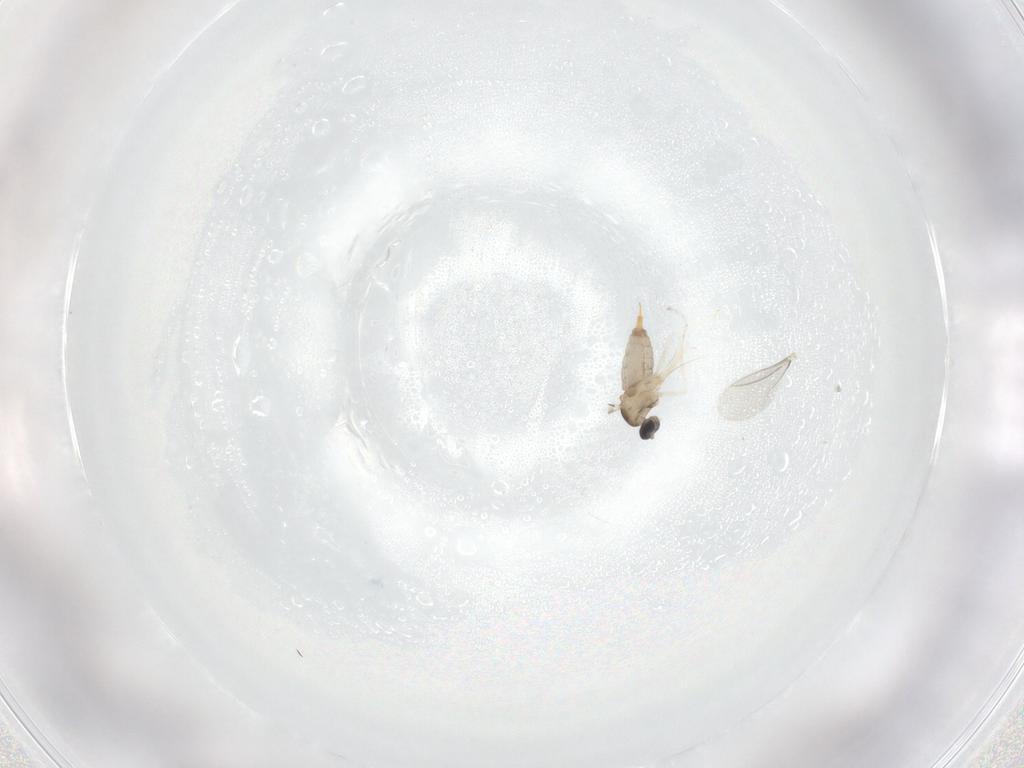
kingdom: Animalia
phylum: Arthropoda
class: Insecta
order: Diptera
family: Cecidomyiidae
